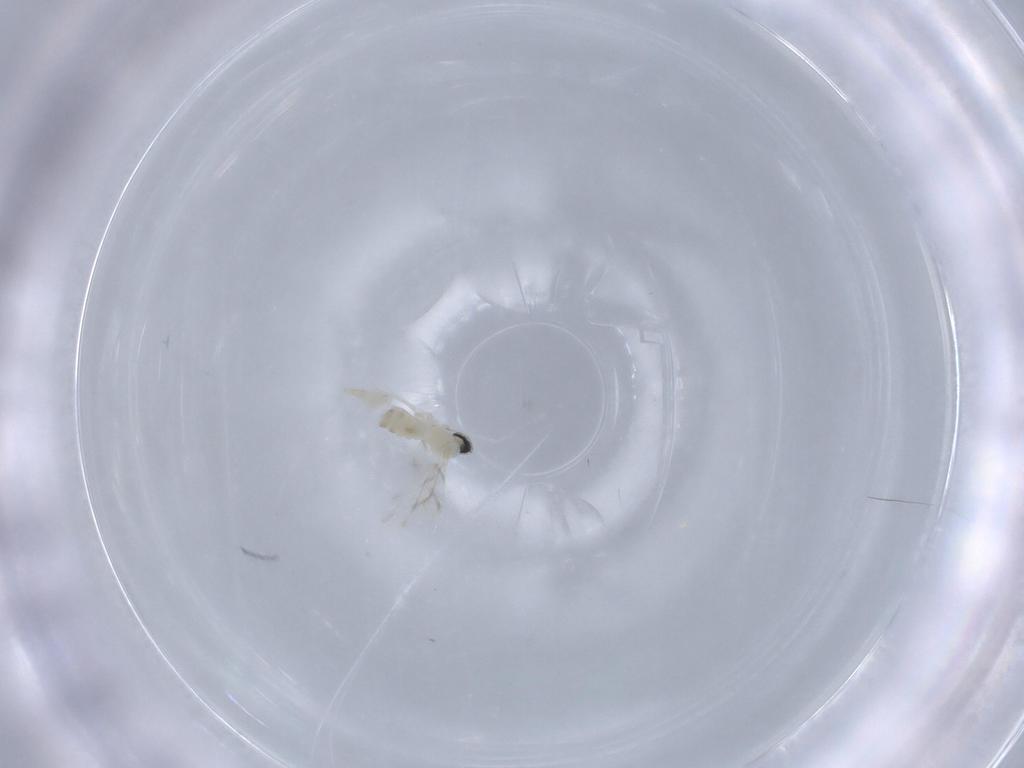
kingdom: Animalia
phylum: Arthropoda
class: Insecta
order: Diptera
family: Cecidomyiidae
